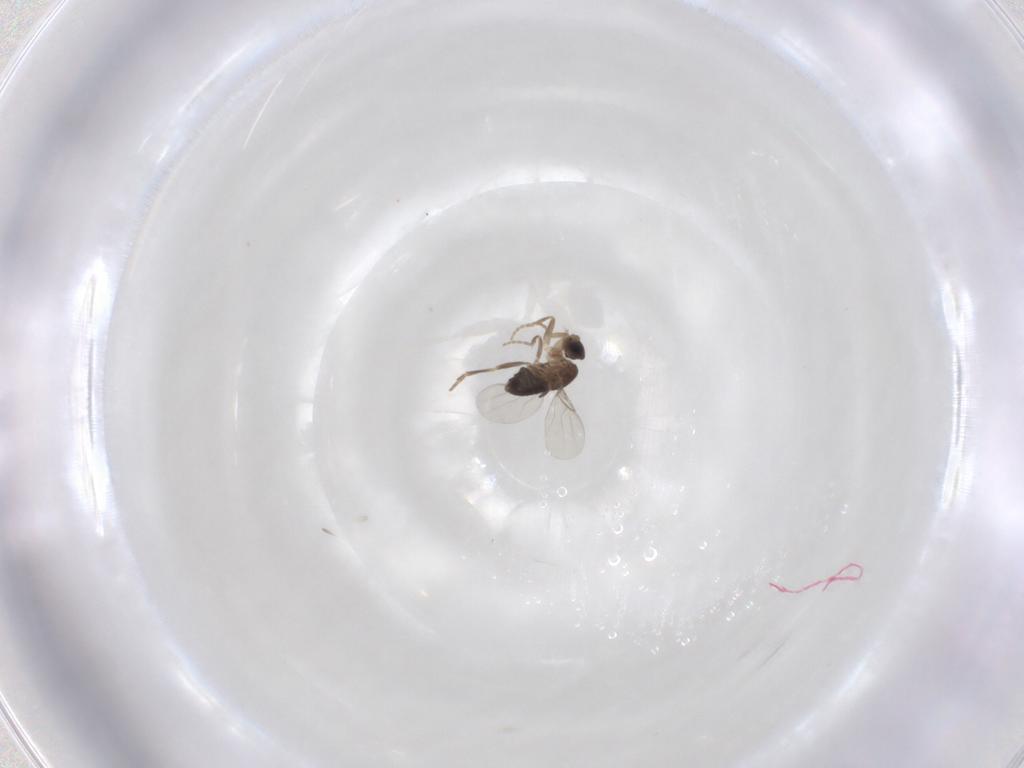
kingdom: Animalia
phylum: Arthropoda
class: Insecta
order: Diptera
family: Phoridae
